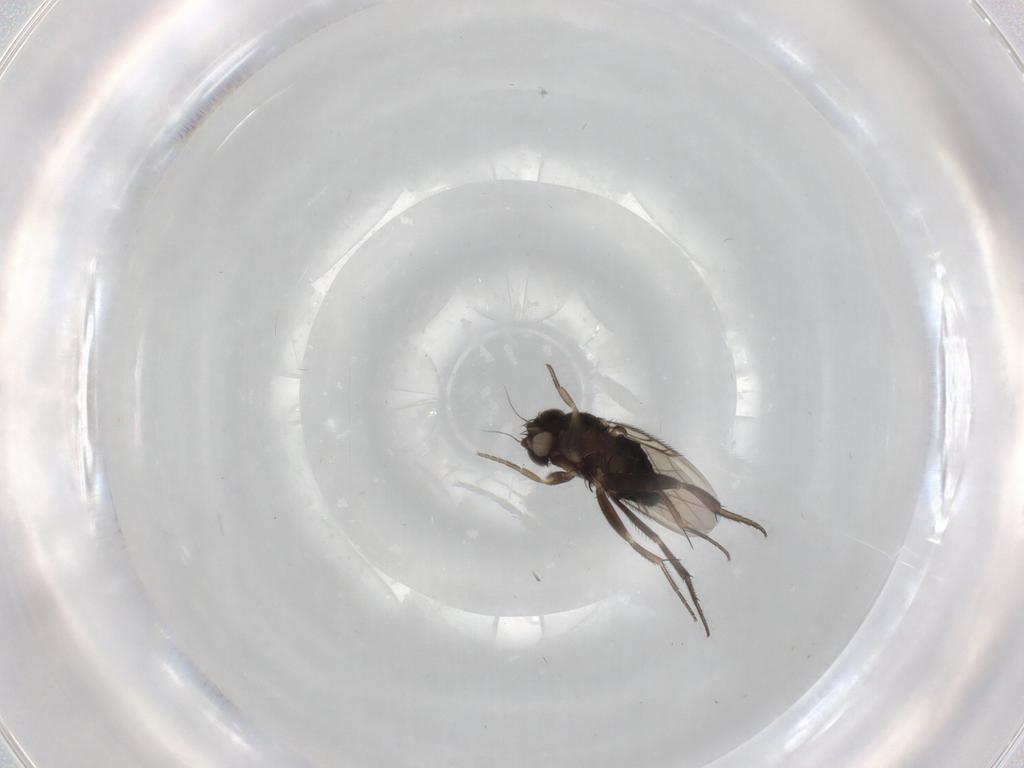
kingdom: Animalia
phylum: Arthropoda
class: Insecta
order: Diptera
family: Phoridae
